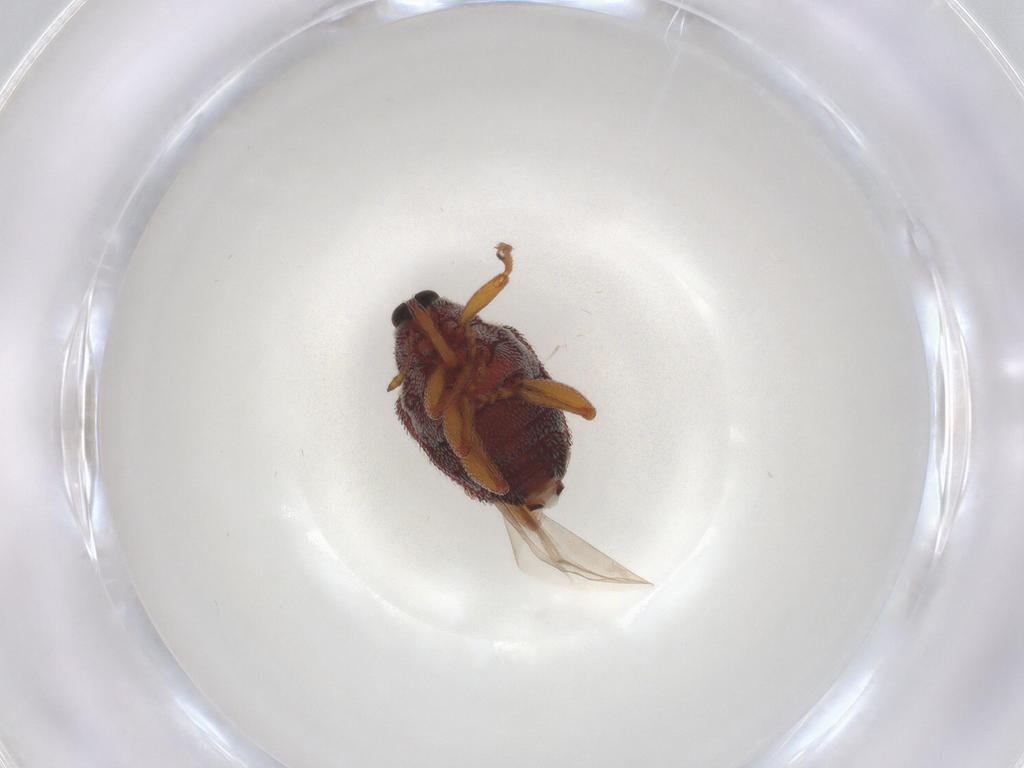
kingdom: Animalia
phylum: Arthropoda
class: Insecta
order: Coleoptera
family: Curculionidae
